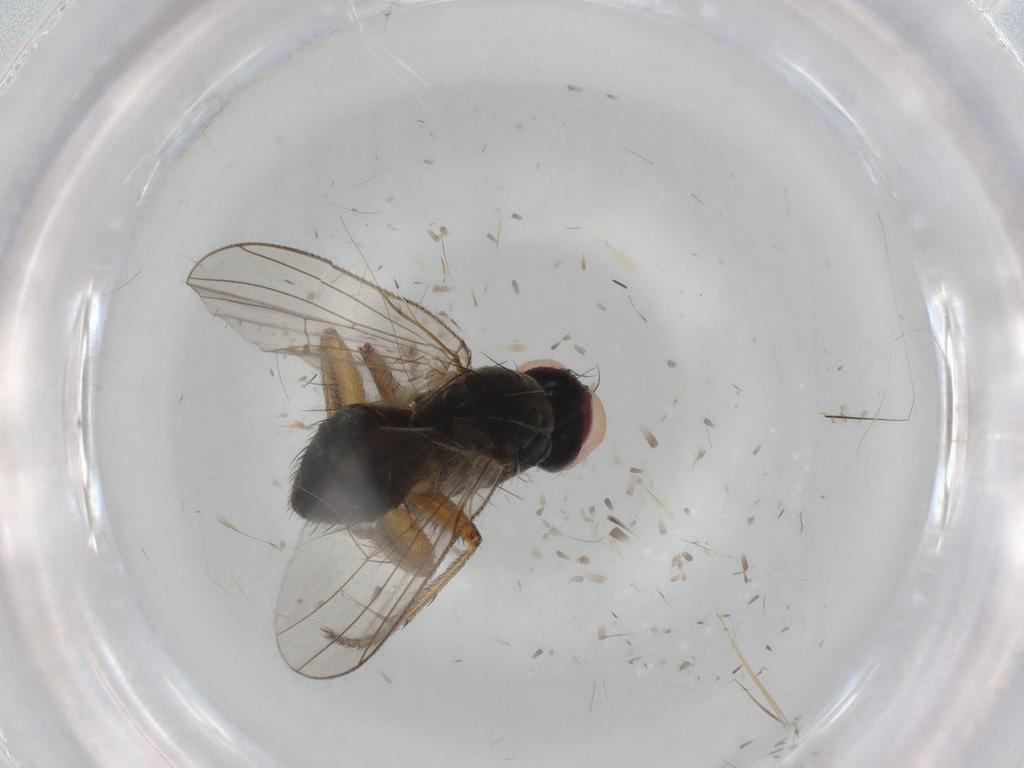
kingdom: Animalia
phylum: Arthropoda
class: Insecta
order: Diptera
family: Muscidae
